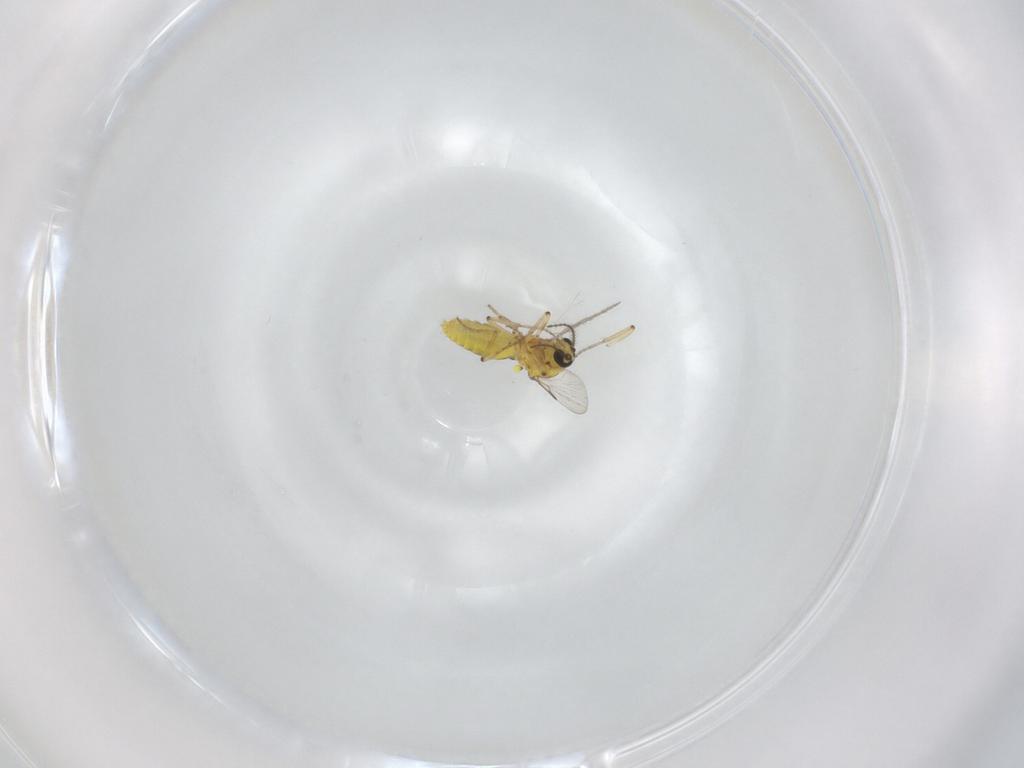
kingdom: Animalia
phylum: Arthropoda
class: Insecta
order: Diptera
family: Ceratopogonidae
